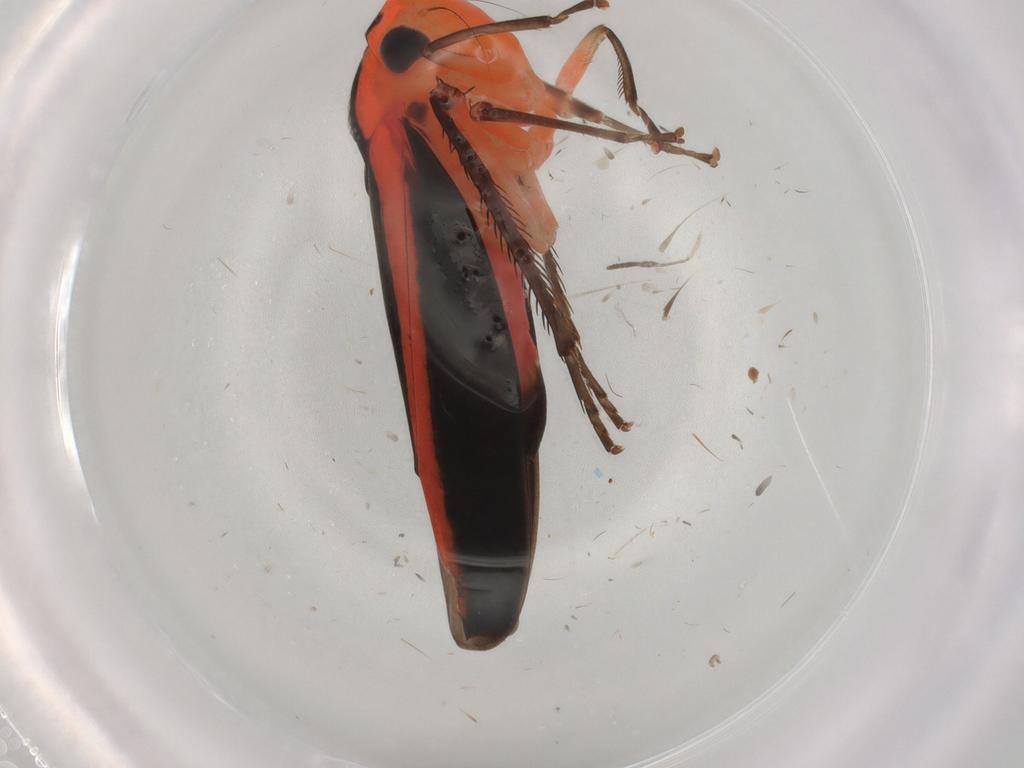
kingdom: Animalia
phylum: Arthropoda
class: Insecta
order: Hemiptera
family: Cicadellidae
